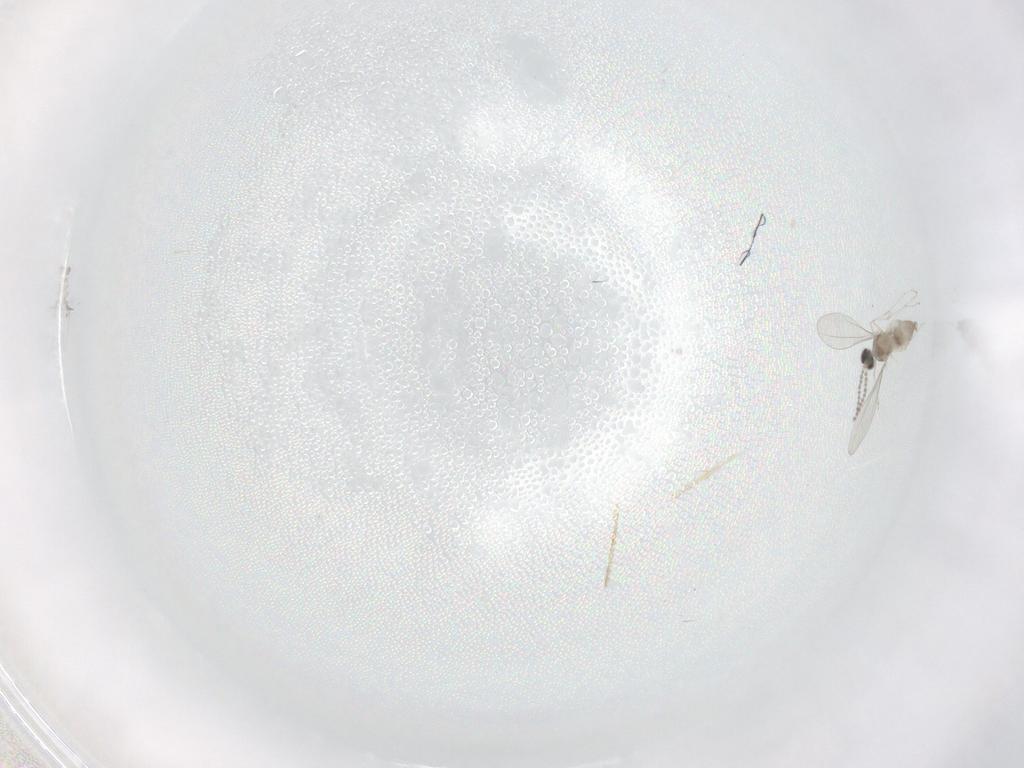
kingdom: Animalia
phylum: Arthropoda
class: Insecta
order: Diptera
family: Cecidomyiidae
